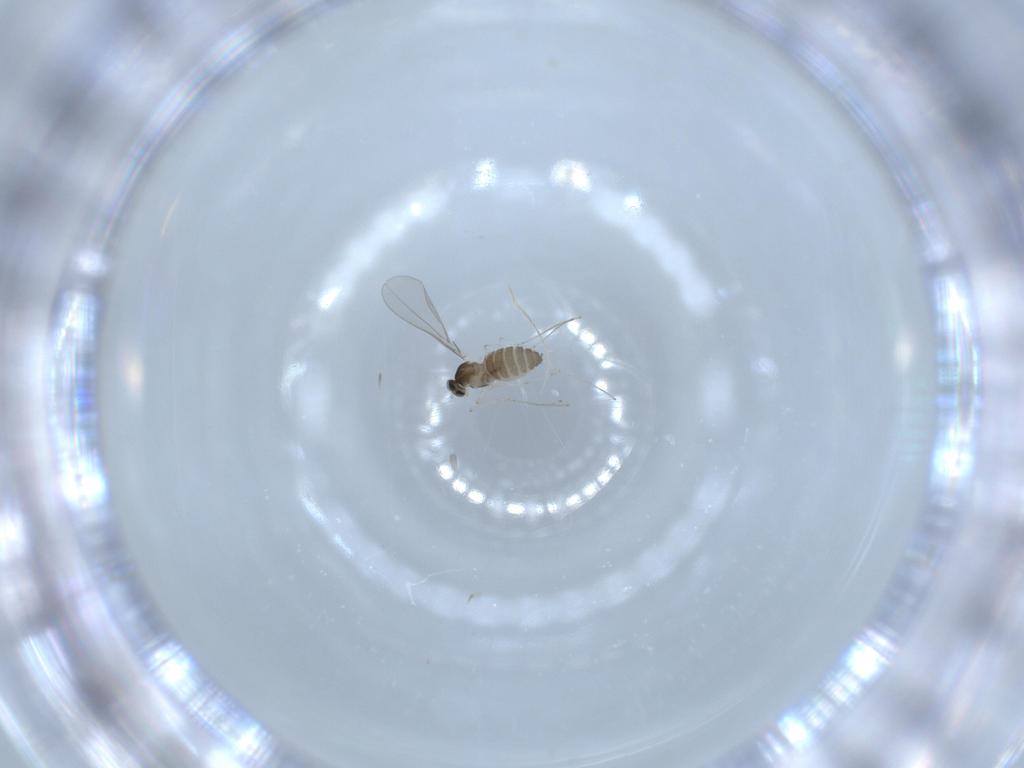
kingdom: Animalia
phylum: Arthropoda
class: Insecta
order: Diptera
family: Cecidomyiidae
